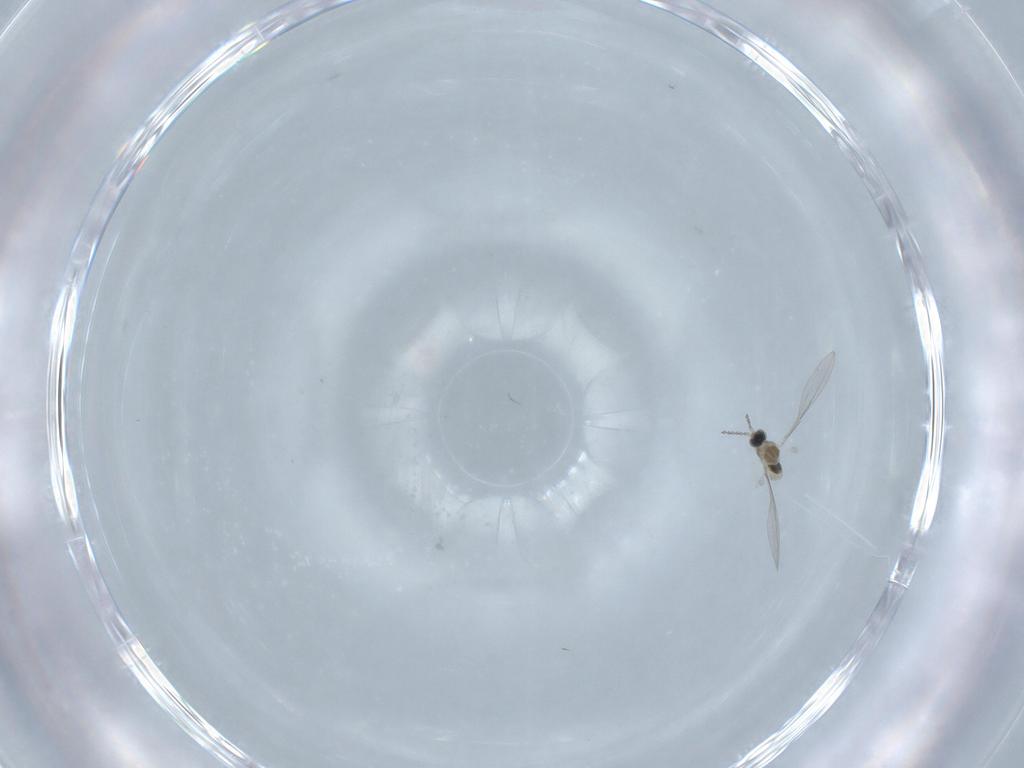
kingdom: Animalia
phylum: Arthropoda
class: Insecta
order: Diptera
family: Cecidomyiidae
